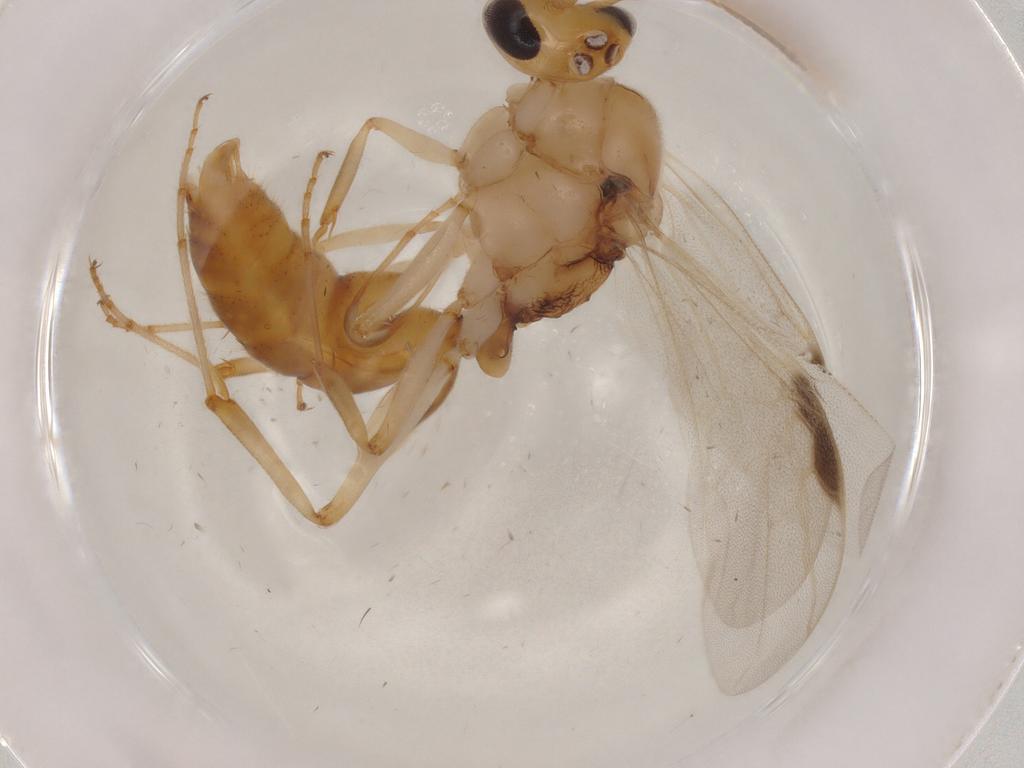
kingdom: Animalia
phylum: Arthropoda
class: Insecta
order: Hymenoptera
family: Formicidae
